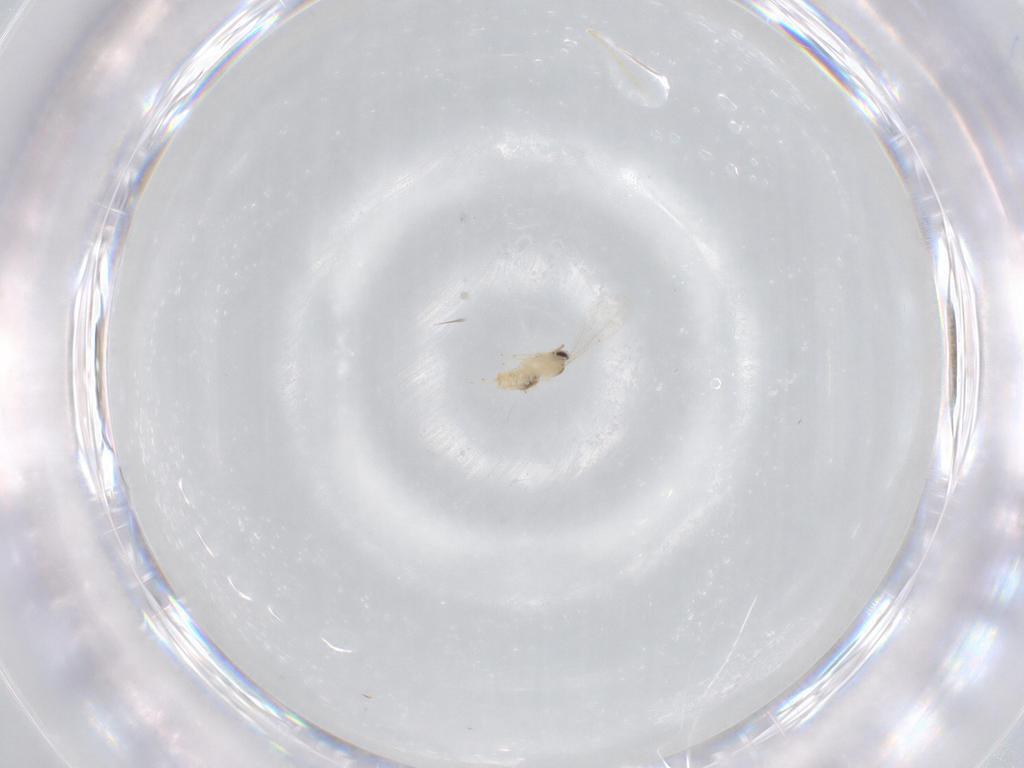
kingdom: Animalia
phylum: Arthropoda
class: Insecta
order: Diptera
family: Cecidomyiidae
